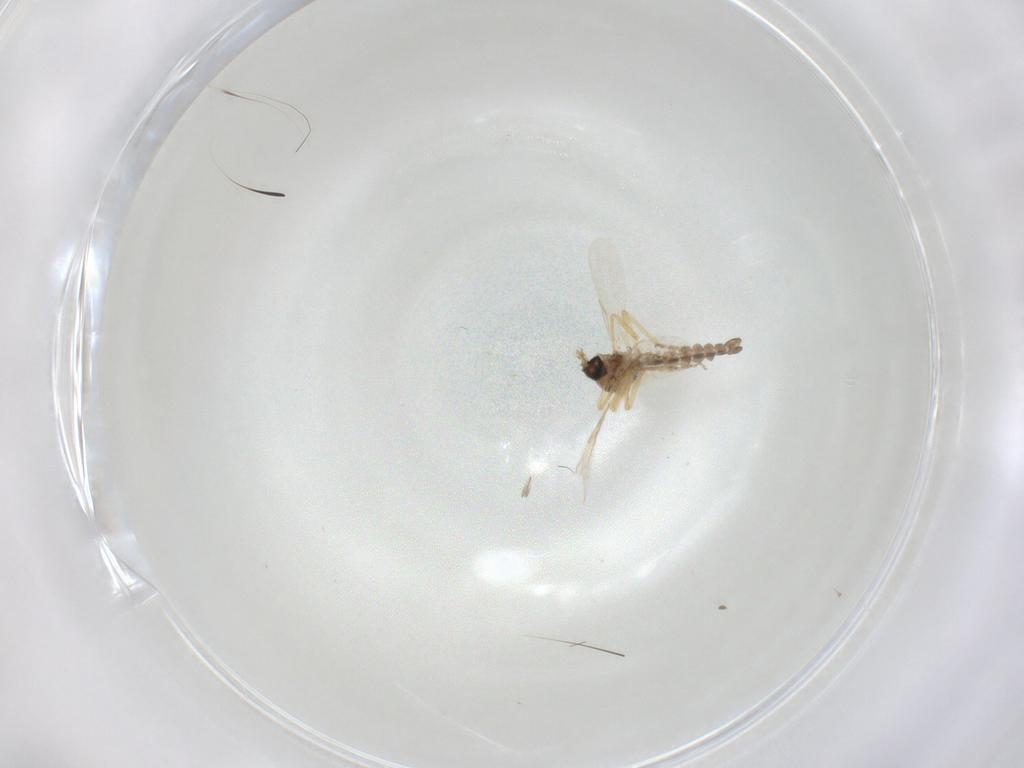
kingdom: Animalia
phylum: Arthropoda
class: Insecta
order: Diptera
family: Ceratopogonidae
